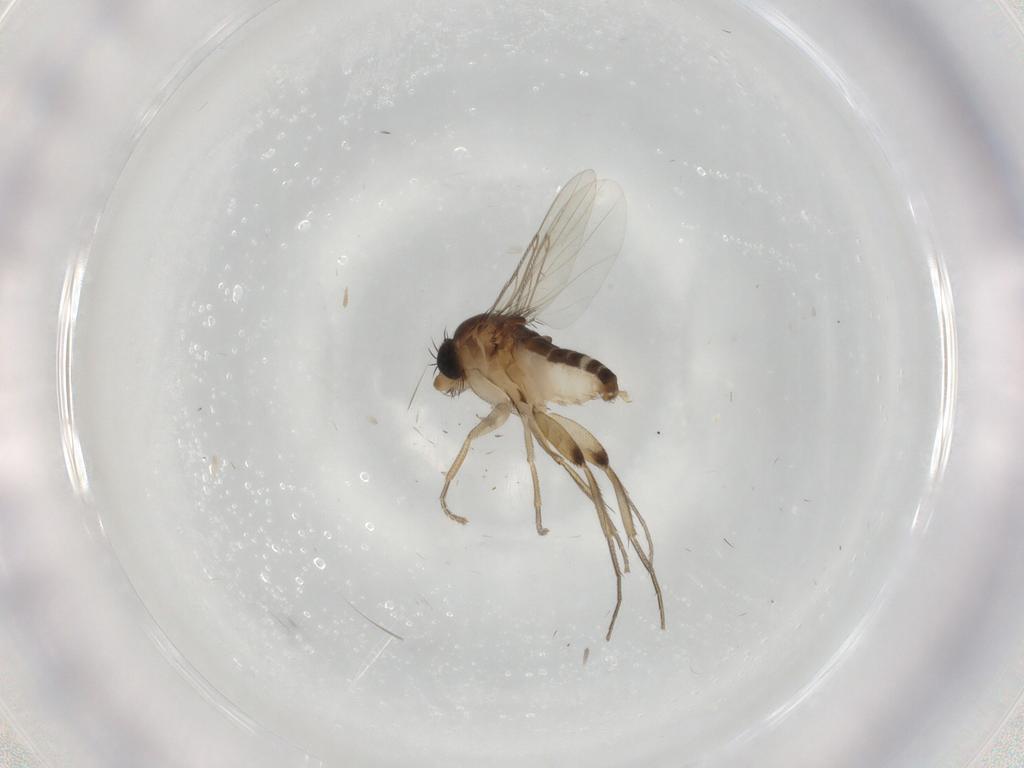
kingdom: Animalia
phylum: Arthropoda
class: Insecta
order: Diptera
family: Phoridae
